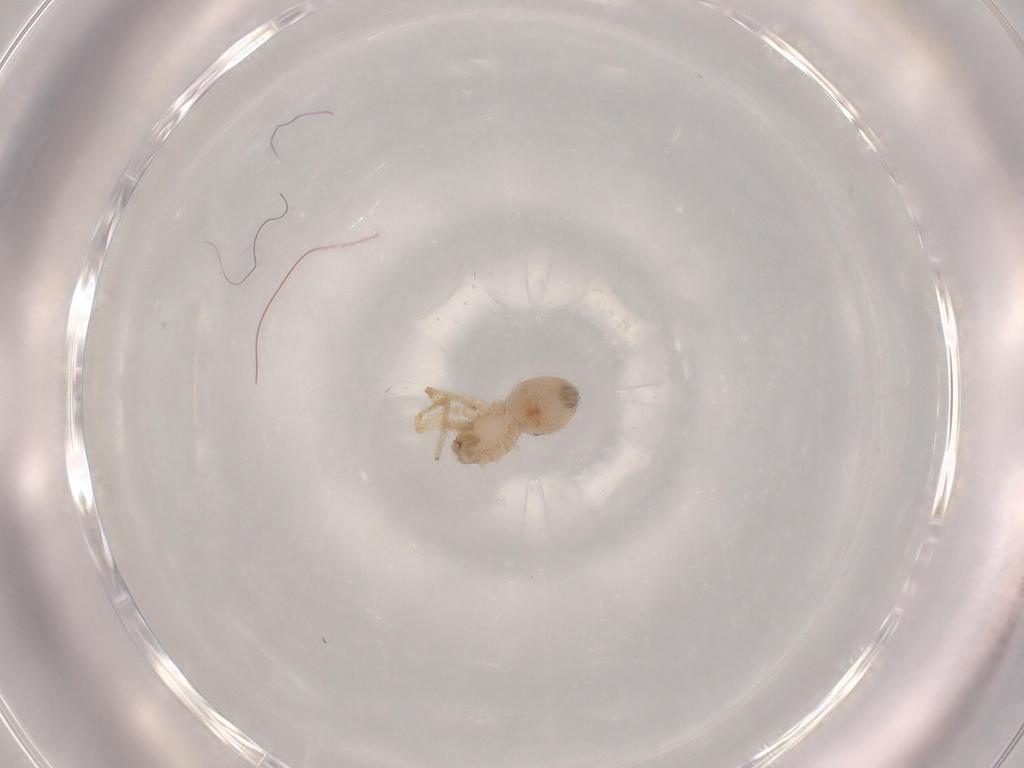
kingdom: Animalia
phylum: Arthropoda
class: Arachnida
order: Araneae
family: Oonopidae
